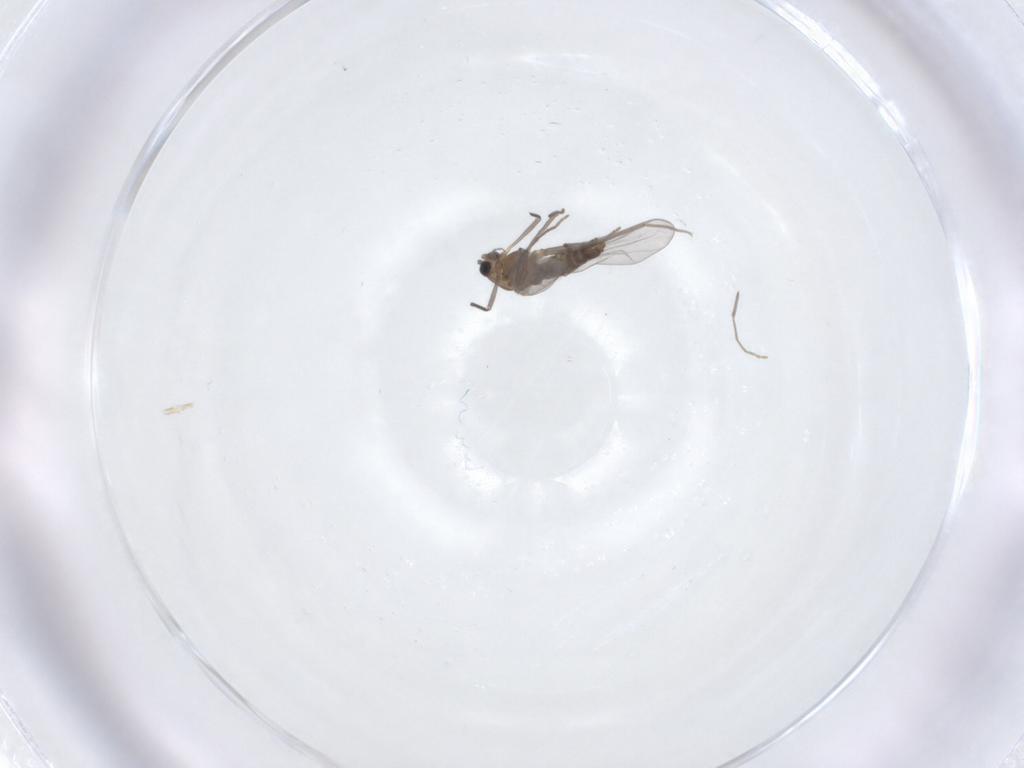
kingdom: Animalia
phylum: Arthropoda
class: Insecta
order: Diptera
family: Chironomidae
